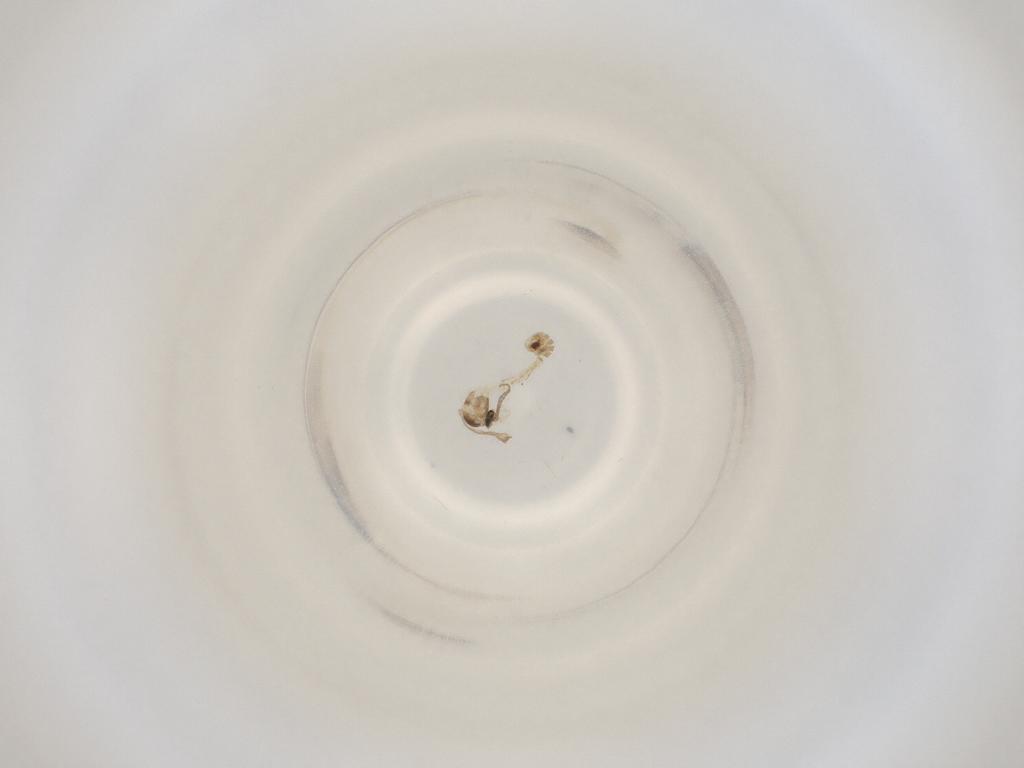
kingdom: Animalia
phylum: Arthropoda
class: Insecta
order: Diptera
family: Cecidomyiidae
